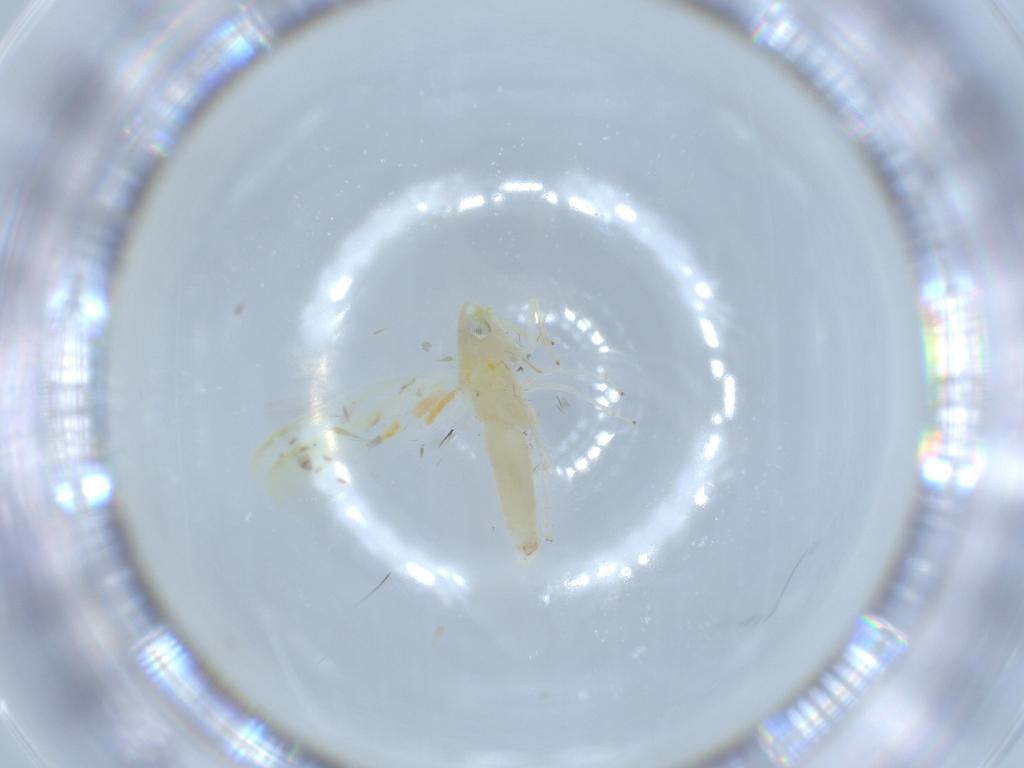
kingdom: Animalia
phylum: Arthropoda
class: Insecta
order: Hemiptera
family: Cicadellidae
